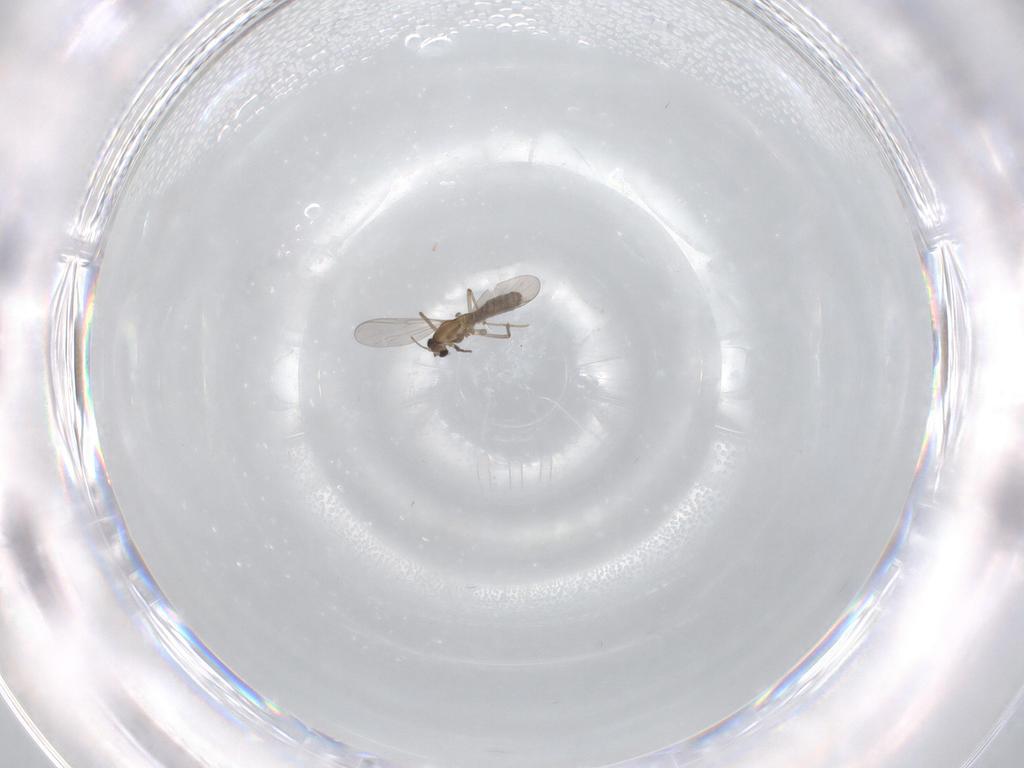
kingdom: Animalia
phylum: Arthropoda
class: Insecta
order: Diptera
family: Chironomidae
